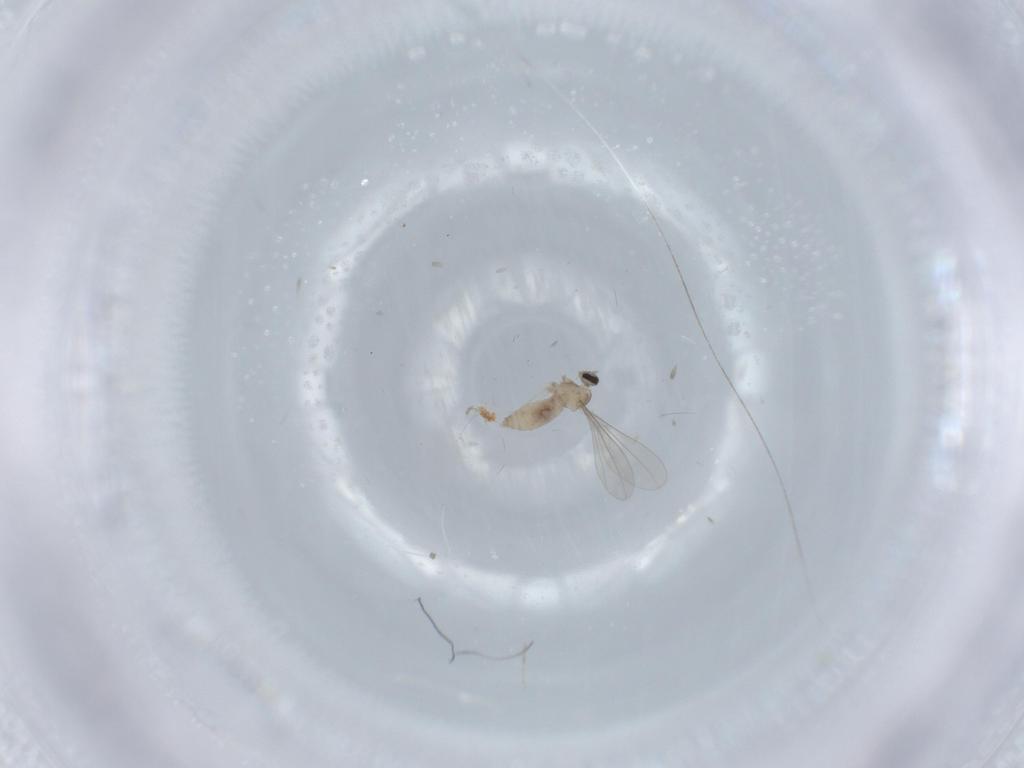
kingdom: Animalia
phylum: Arthropoda
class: Insecta
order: Diptera
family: Cecidomyiidae
